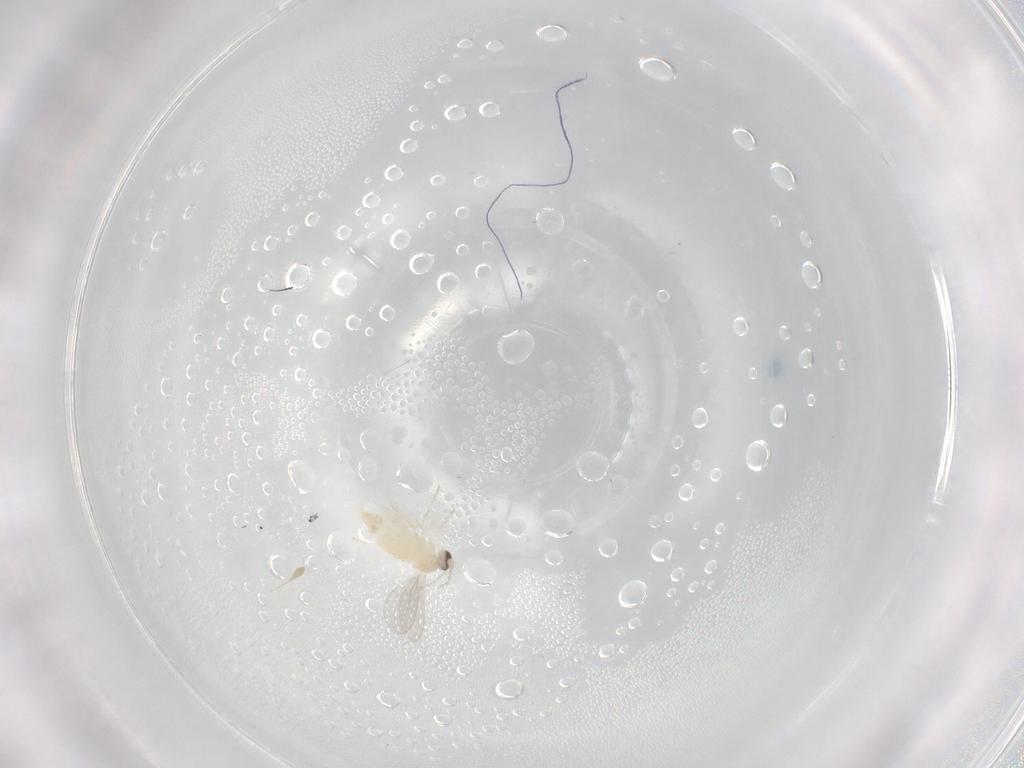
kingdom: Animalia
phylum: Arthropoda
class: Insecta
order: Diptera
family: Cecidomyiidae
